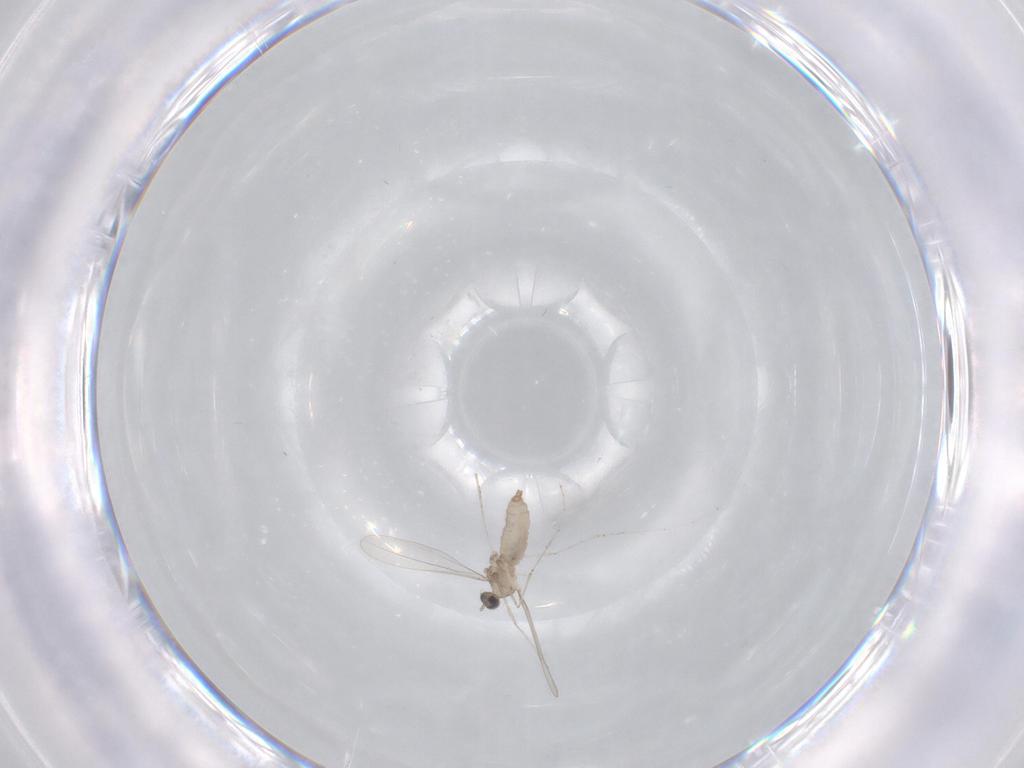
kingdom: Animalia
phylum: Arthropoda
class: Insecta
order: Diptera
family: Cecidomyiidae
